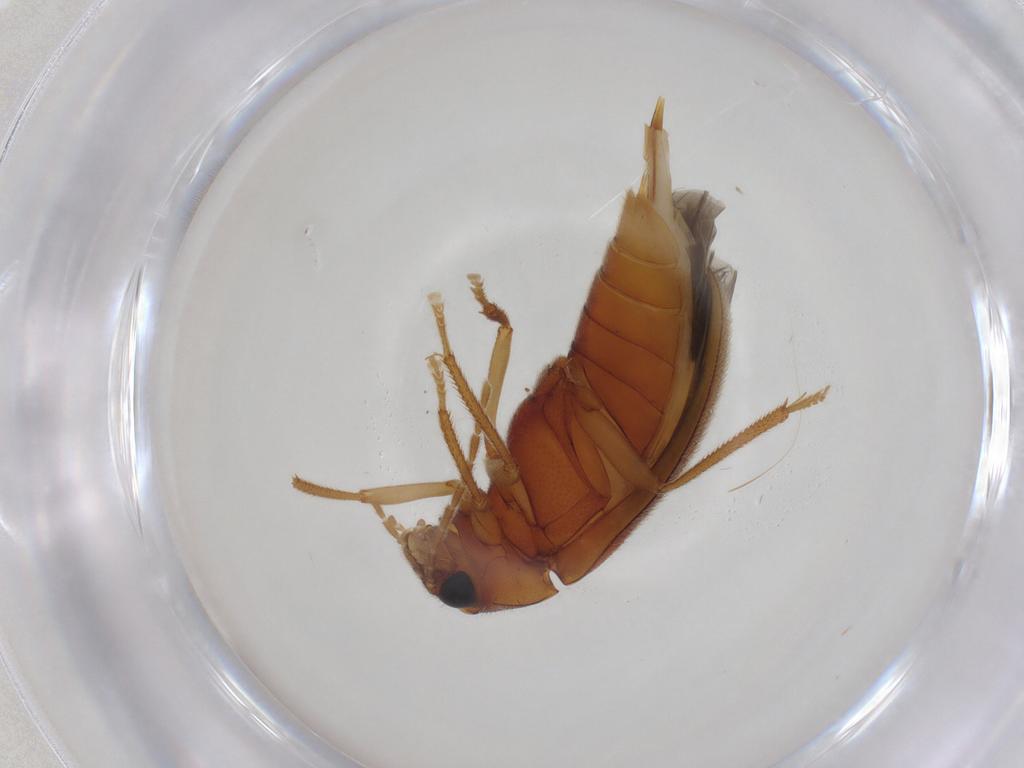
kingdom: Animalia
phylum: Arthropoda
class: Insecta
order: Coleoptera
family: Ptilodactylidae
